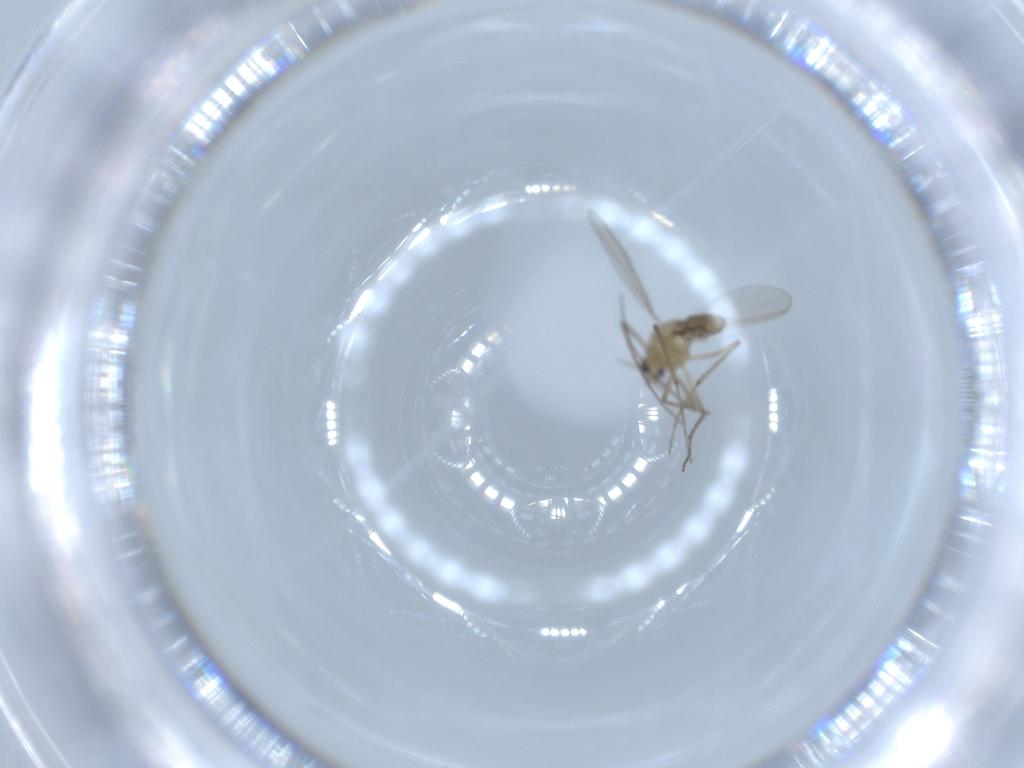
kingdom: Animalia
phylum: Arthropoda
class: Insecta
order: Diptera
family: Chironomidae
